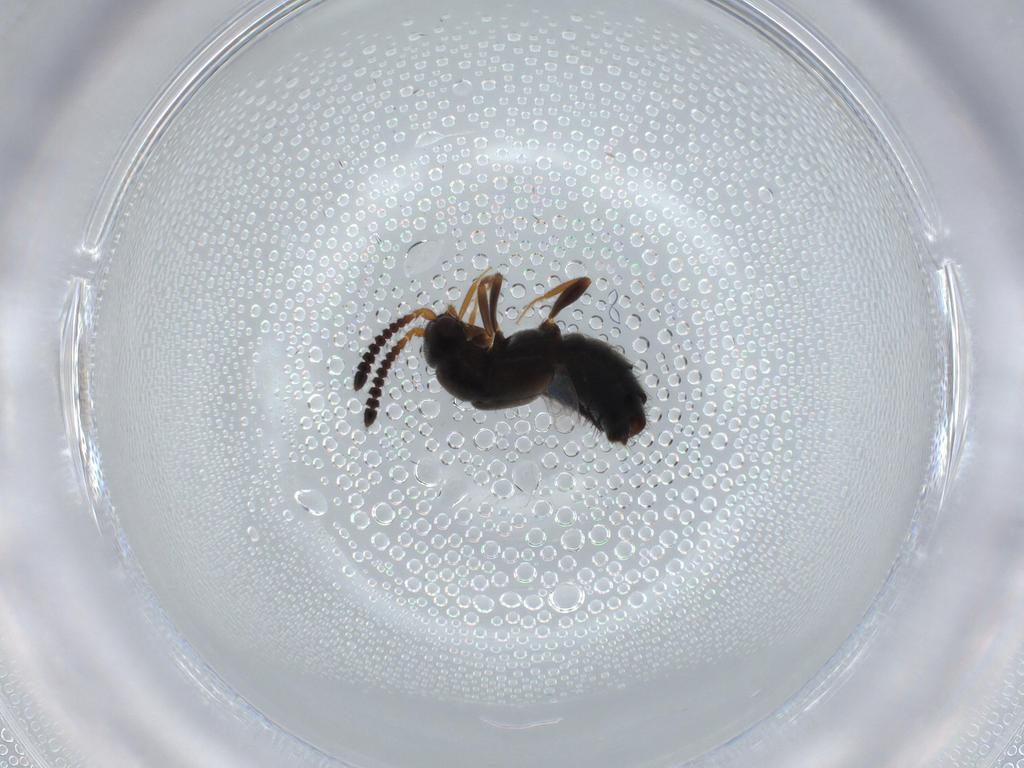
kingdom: Animalia
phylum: Arthropoda
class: Insecta
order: Coleoptera
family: Staphylinidae
